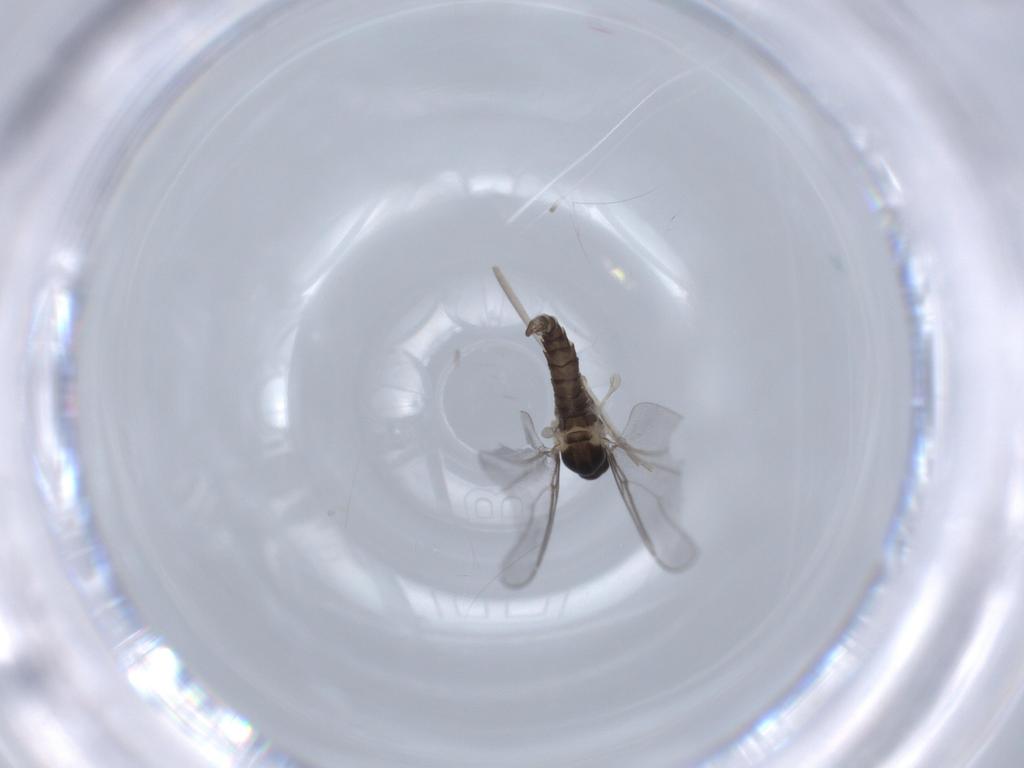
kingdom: Animalia
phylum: Arthropoda
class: Insecta
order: Diptera
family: Cecidomyiidae
